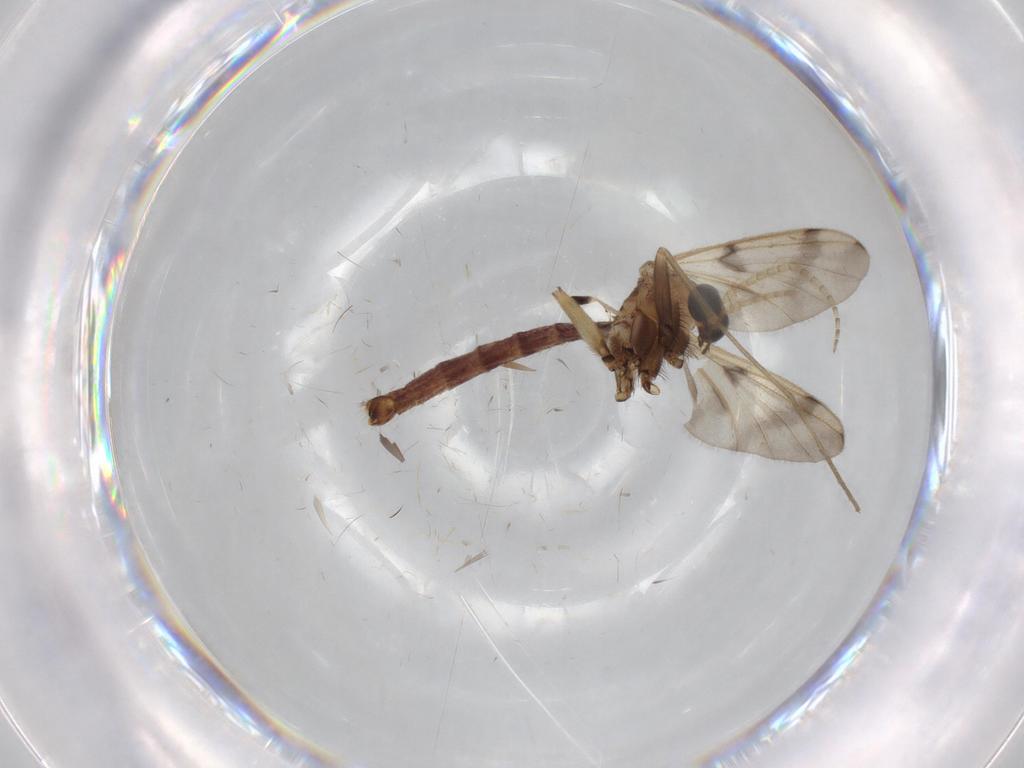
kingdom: Animalia
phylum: Arthropoda
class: Insecta
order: Diptera
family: Phoridae
